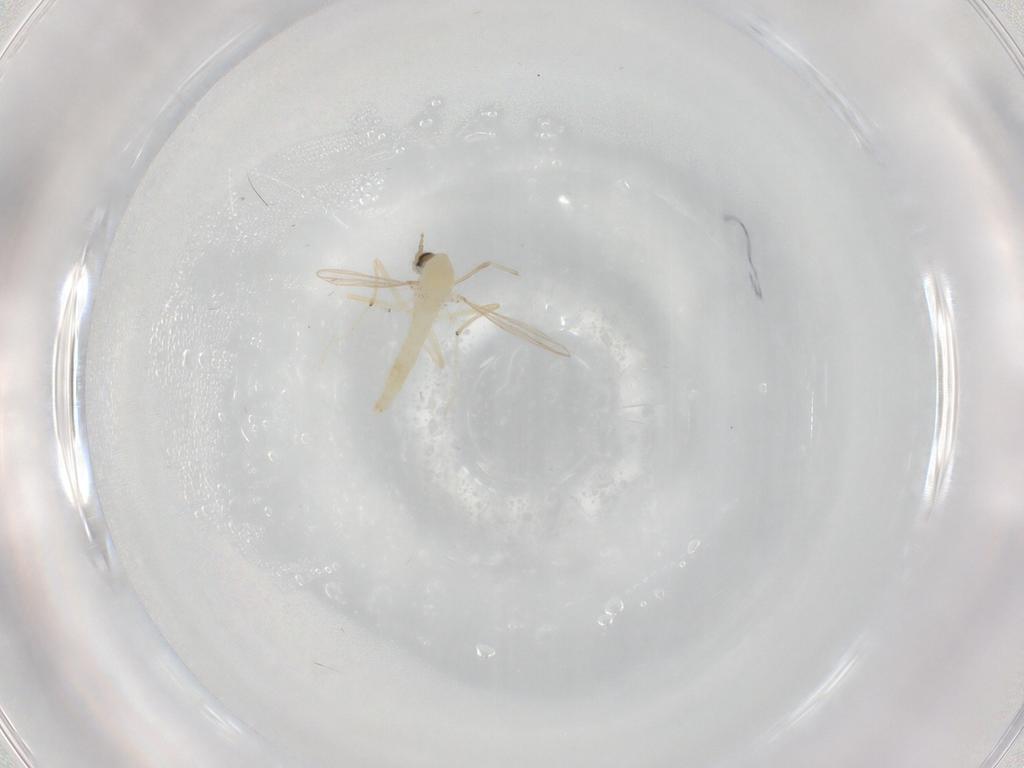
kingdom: Animalia
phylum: Arthropoda
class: Insecta
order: Diptera
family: Chironomidae
